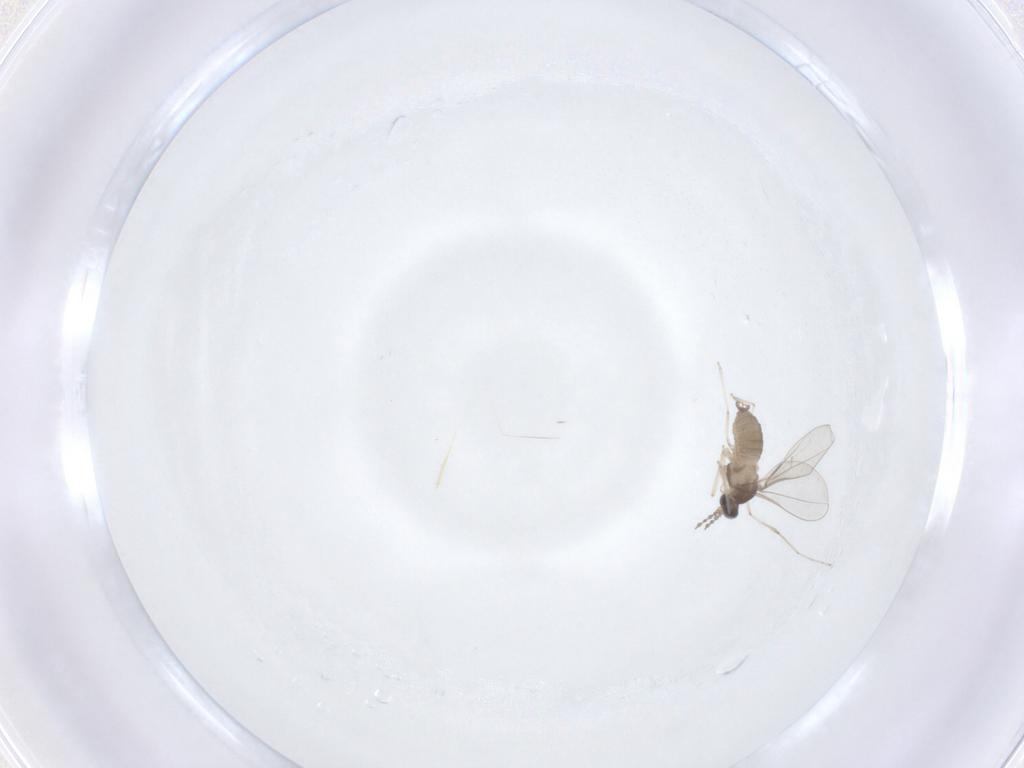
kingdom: Animalia
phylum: Arthropoda
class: Insecta
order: Diptera
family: Cecidomyiidae
